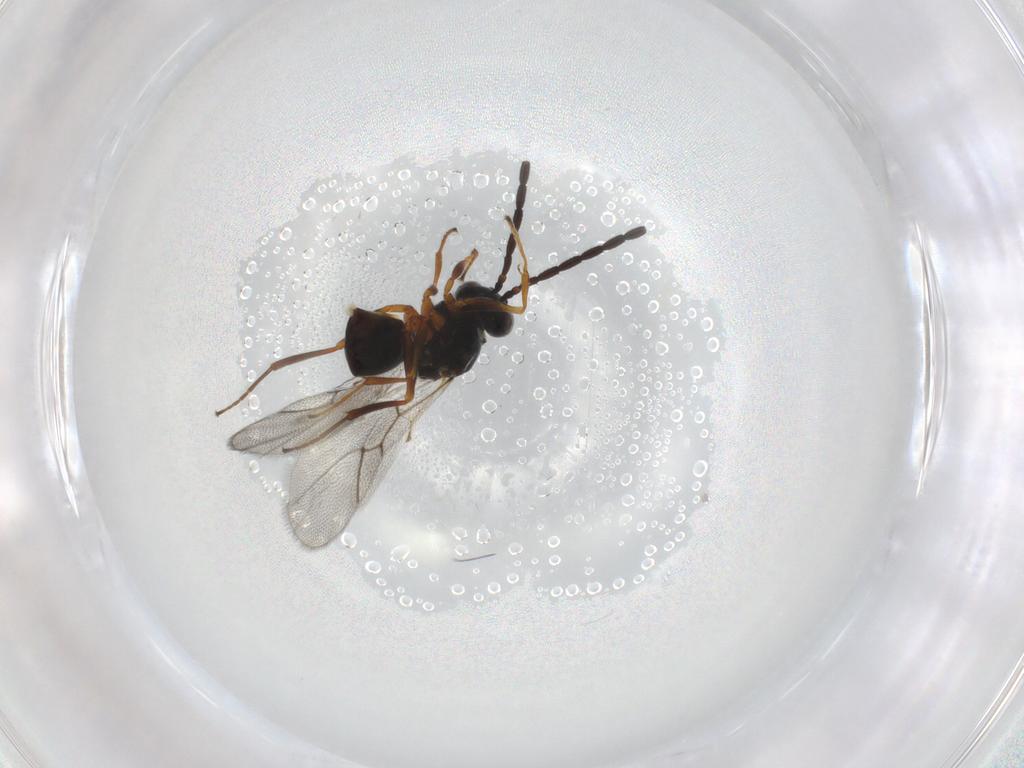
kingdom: Animalia
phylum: Arthropoda
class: Insecta
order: Hymenoptera
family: Figitidae
